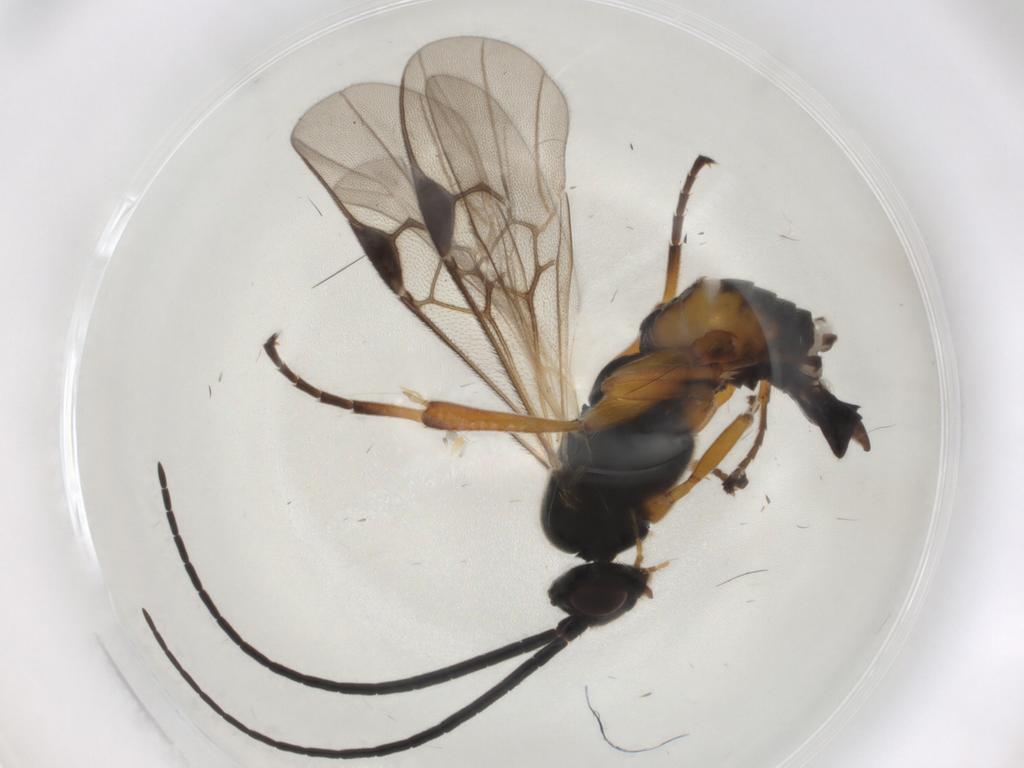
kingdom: Animalia
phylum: Arthropoda
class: Insecta
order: Lepidoptera
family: Tortricidae
